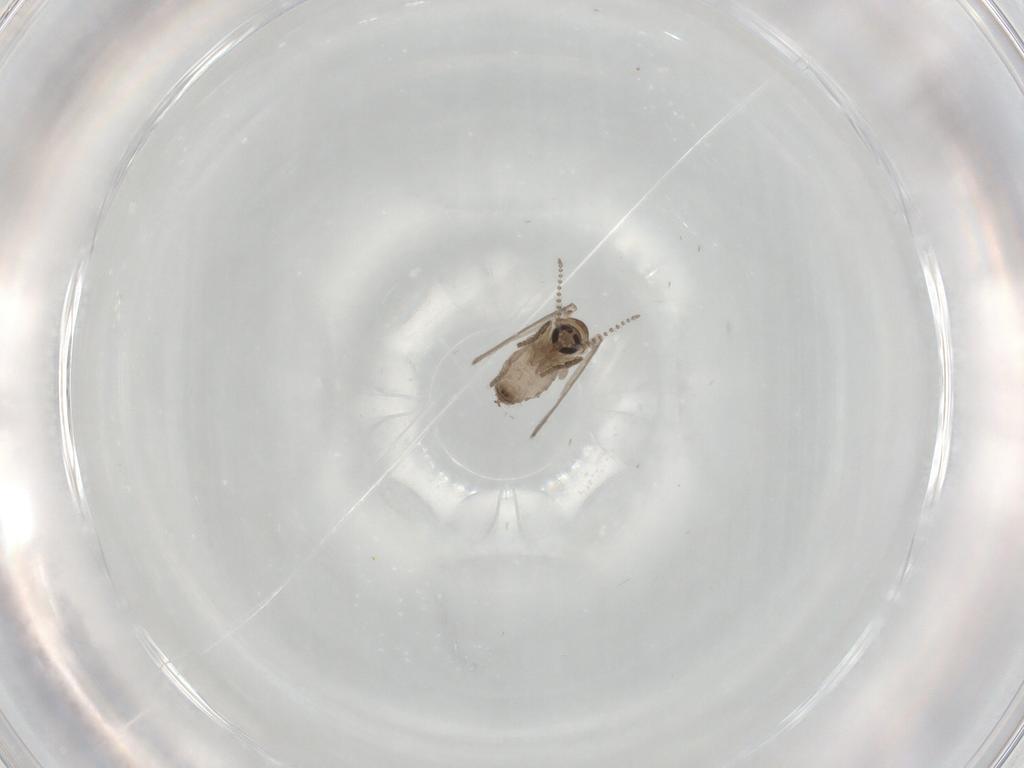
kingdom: Animalia
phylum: Arthropoda
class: Insecta
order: Diptera
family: Psychodidae
